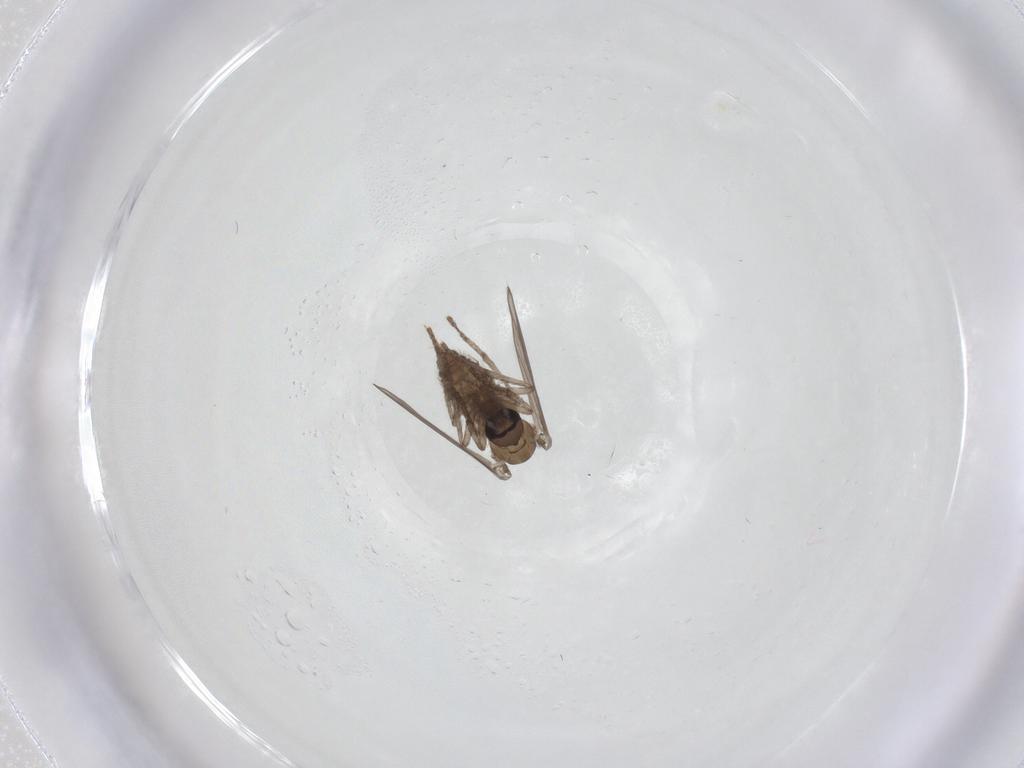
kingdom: Animalia
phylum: Arthropoda
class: Insecta
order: Diptera
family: Psychodidae
